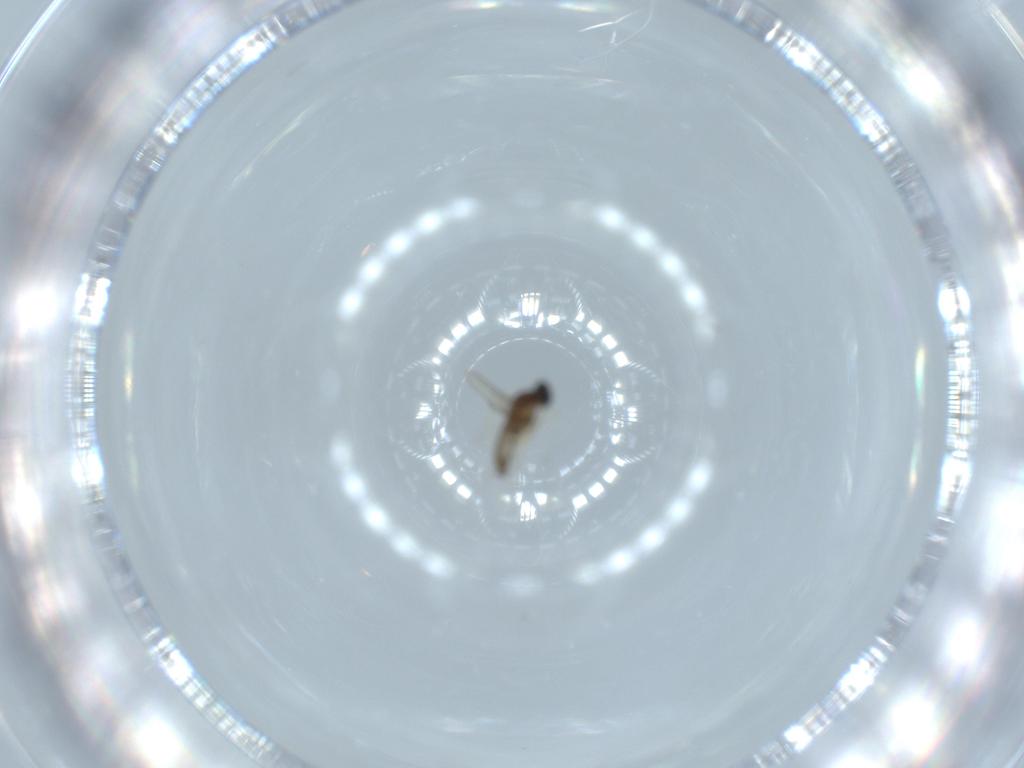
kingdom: Animalia
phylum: Arthropoda
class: Insecta
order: Diptera
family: Cecidomyiidae
